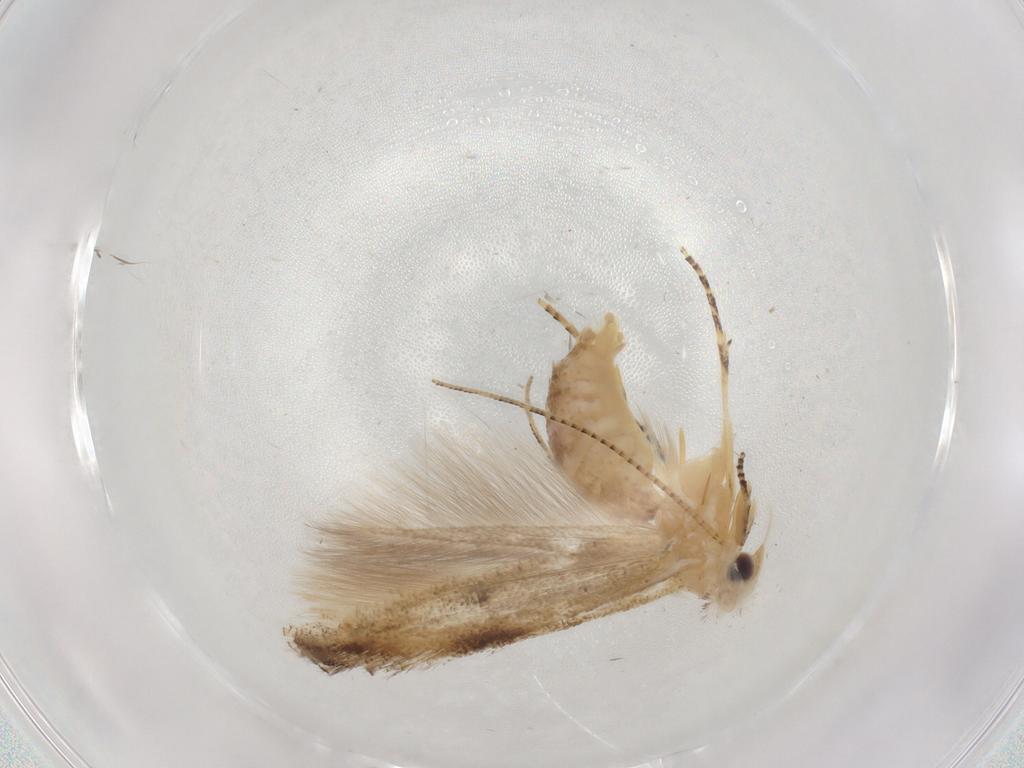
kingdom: Animalia
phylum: Arthropoda
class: Insecta
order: Lepidoptera
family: Bucculatricidae
